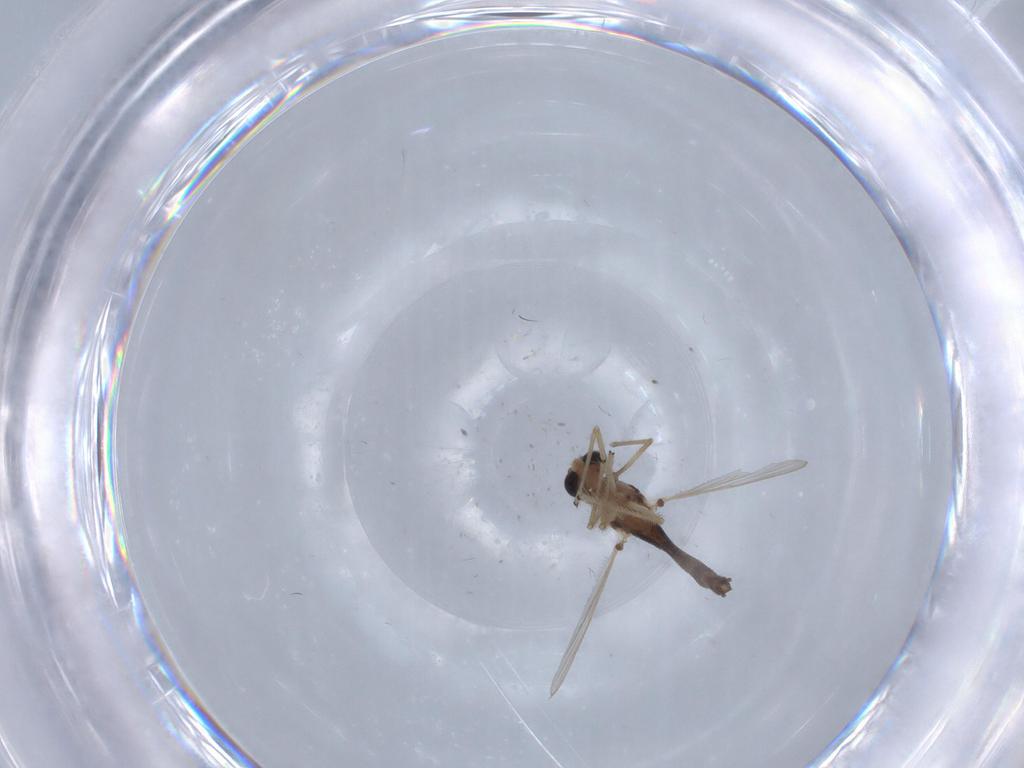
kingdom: Animalia
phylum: Arthropoda
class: Insecta
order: Diptera
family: Chironomidae
